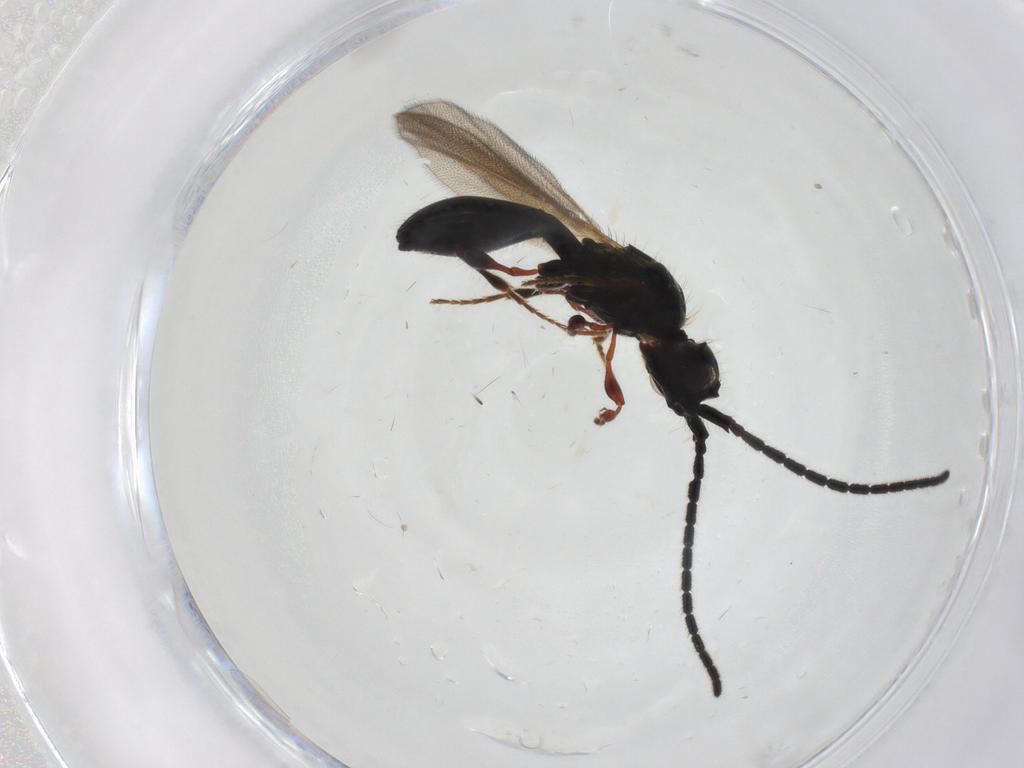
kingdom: Animalia
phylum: Arthropoda
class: Insecta
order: Hymenoptera
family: Diapriidae
